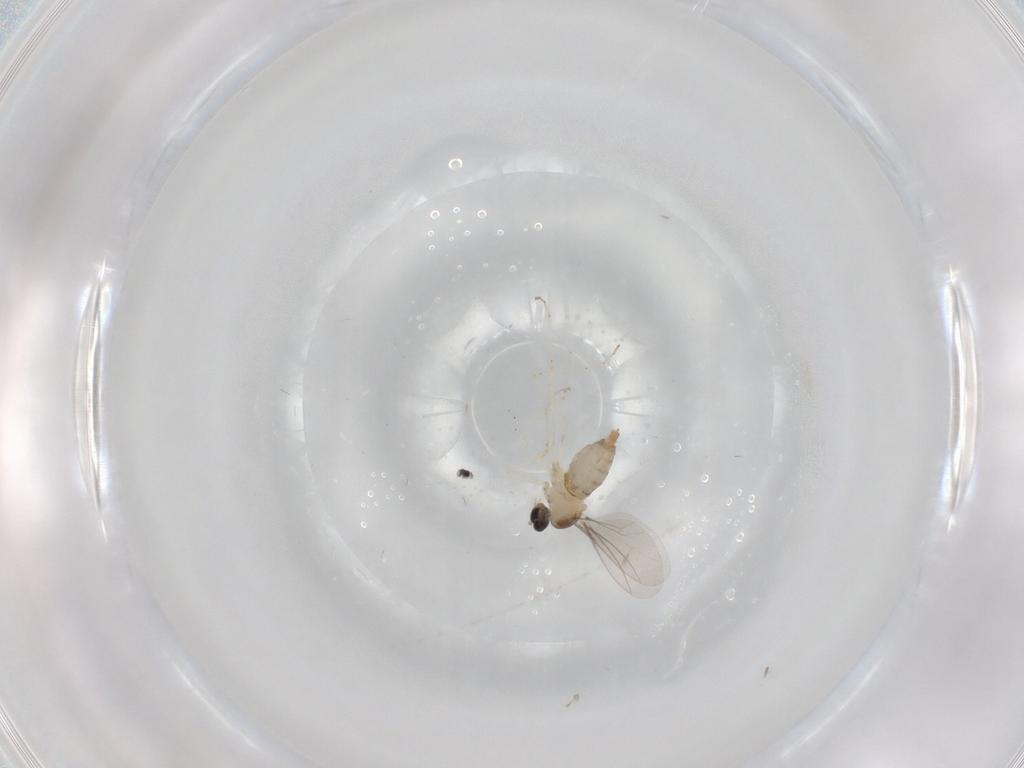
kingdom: Animalia
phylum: Arthropoda
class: Insecta
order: Diptera
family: Cecidomyiidae
